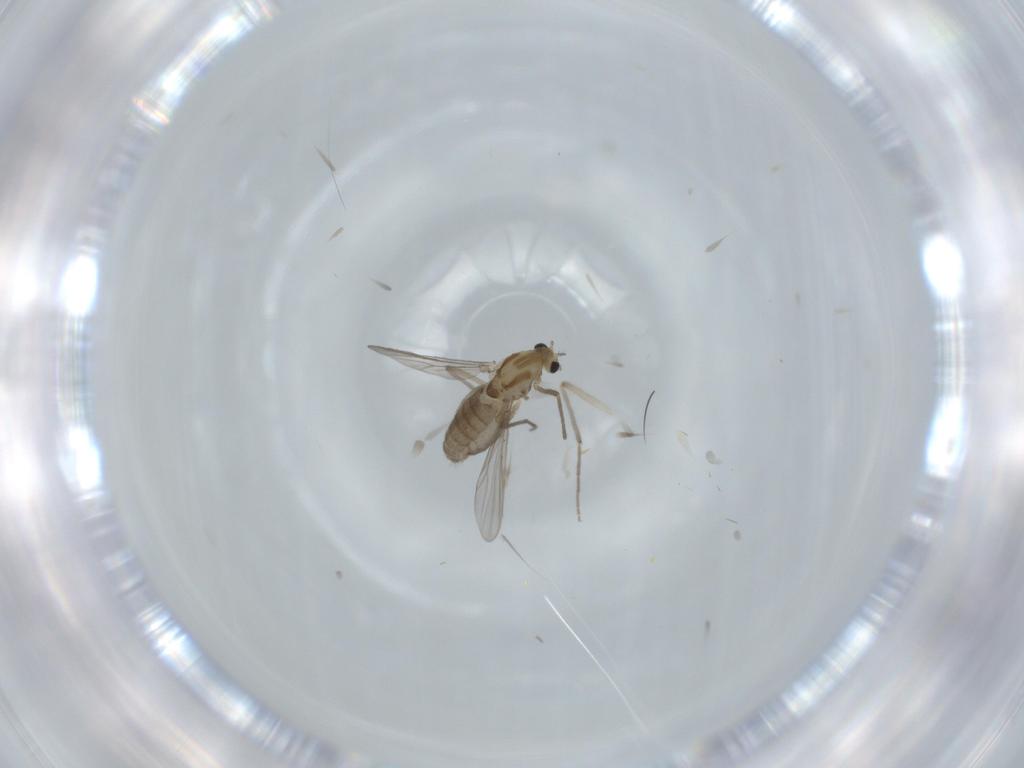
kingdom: Animalia
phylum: Arthropoda
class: Insecta
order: Diptera
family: Chironomidae
